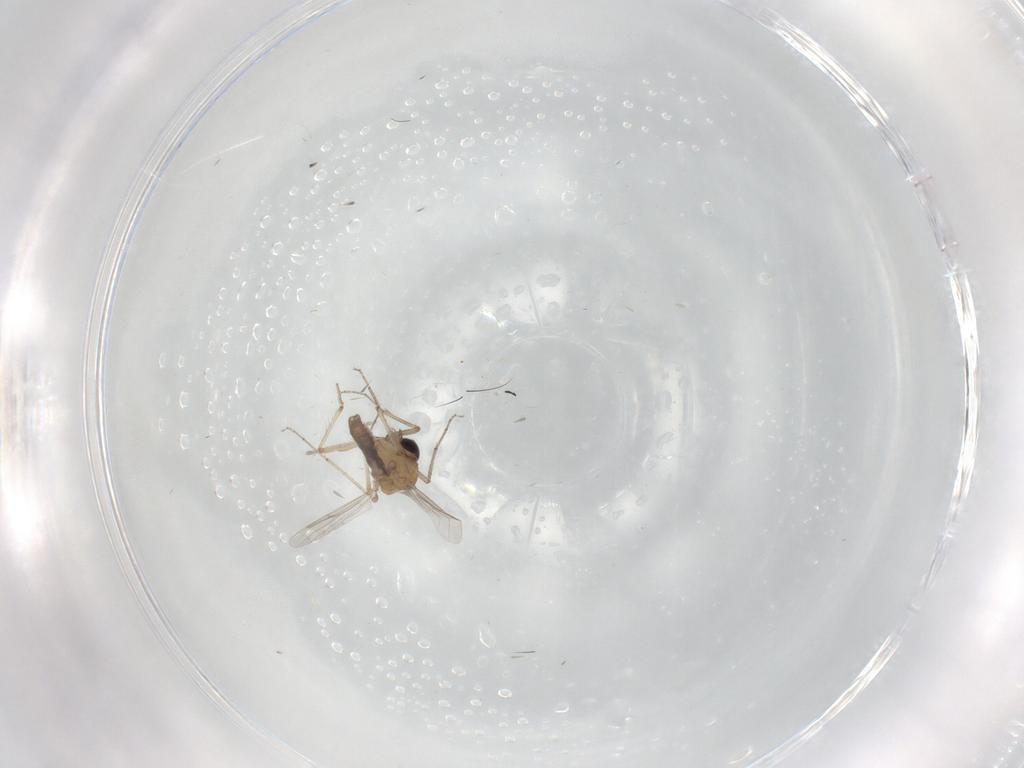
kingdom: Animalia
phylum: Arthropoda
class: Insecta
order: Diptera
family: Ceratopogonidae
